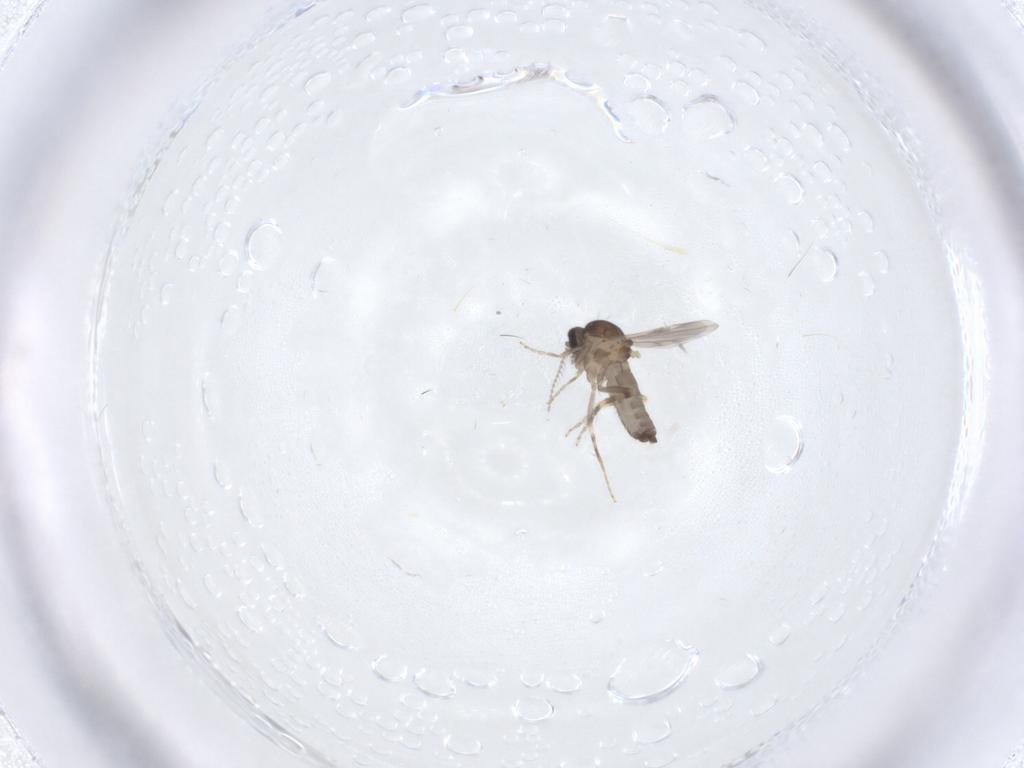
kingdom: Animalia
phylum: Arthropoda
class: Insecta
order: Diptera
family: Ceratopogonidae
